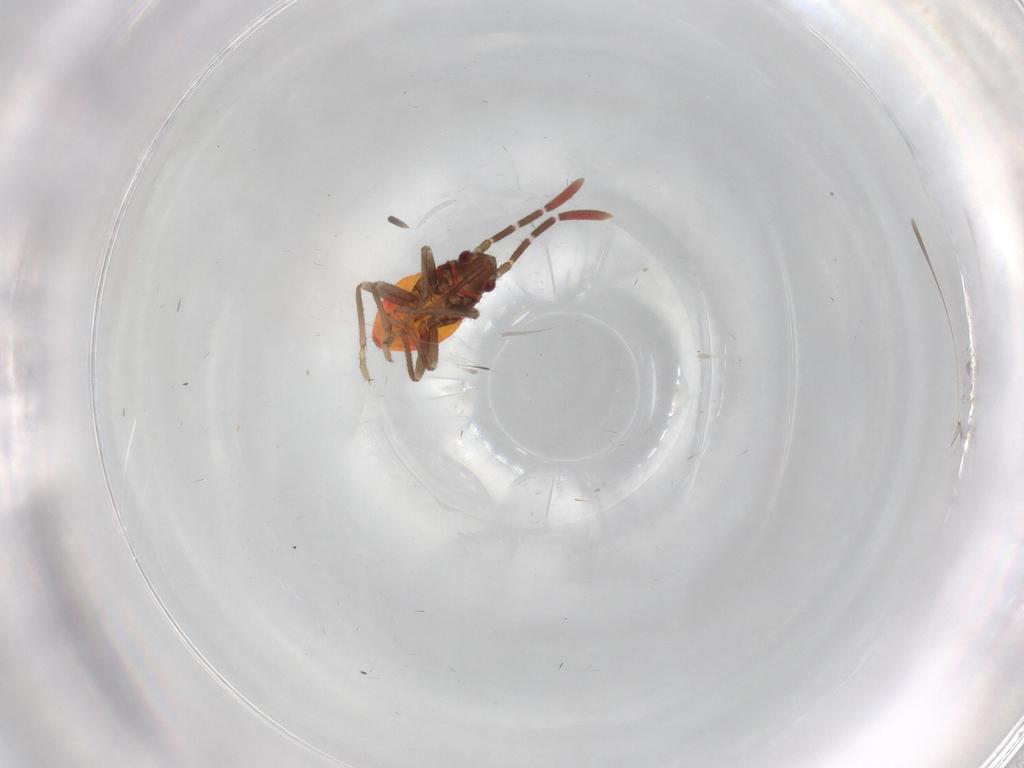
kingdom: Animalia
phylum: Arthropoda
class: Insecta
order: Hemiptera
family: Rhyparochromidae
